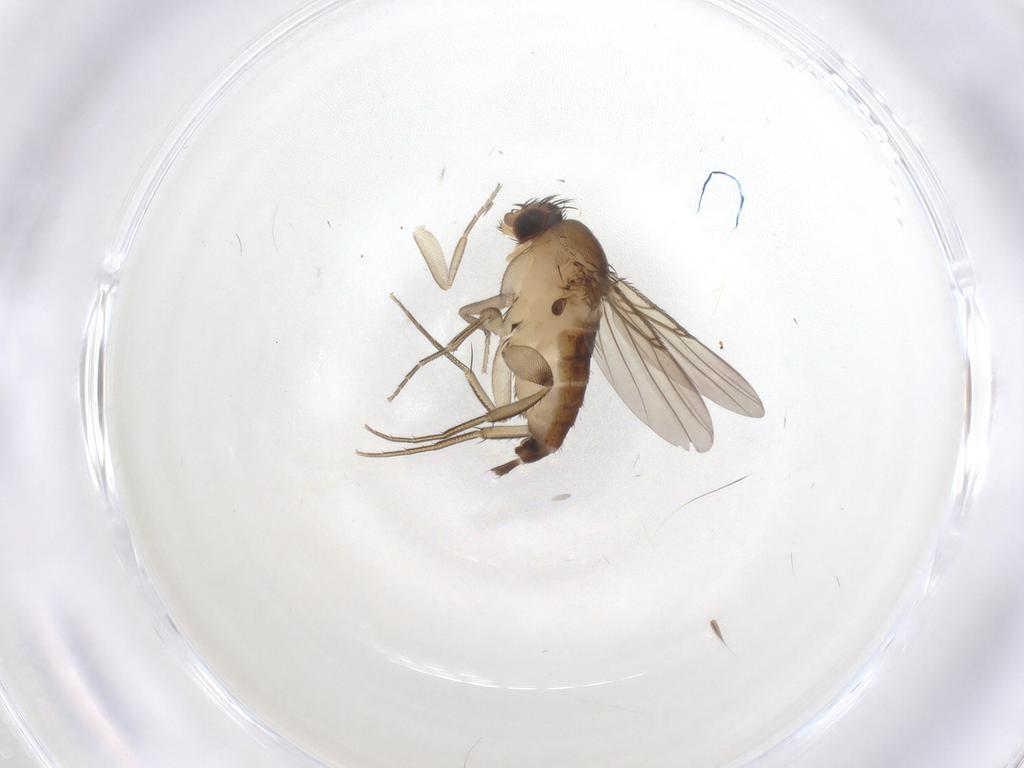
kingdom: Animalia
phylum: Arthropoda
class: Insecta
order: Diptera
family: Phoridae
